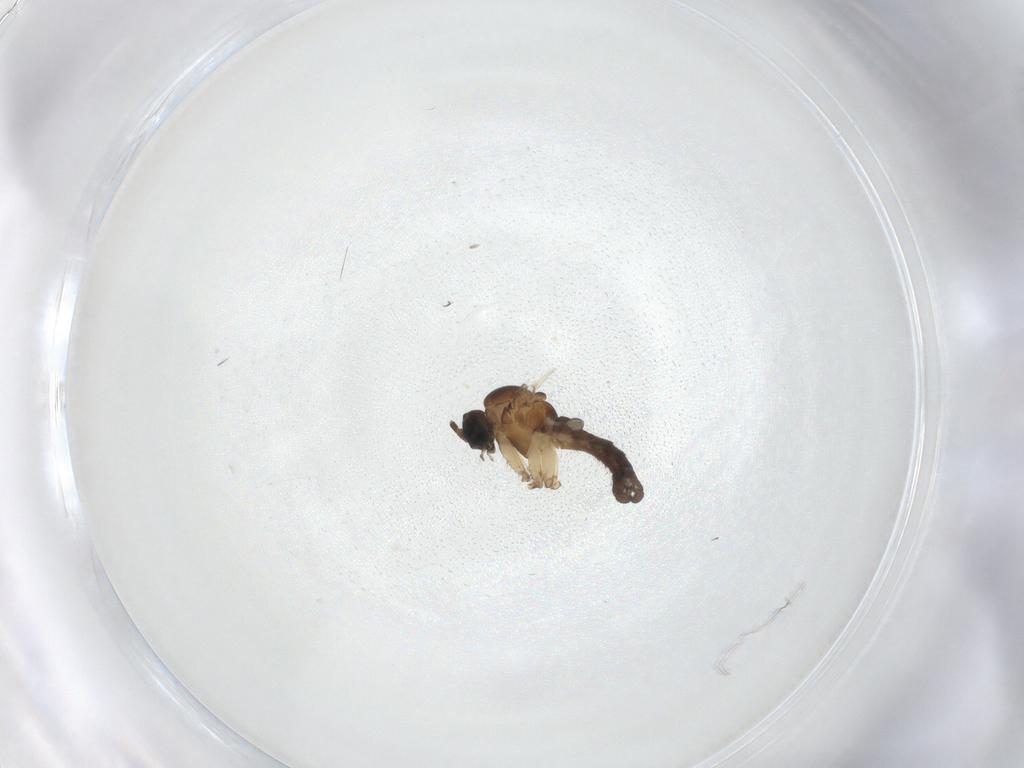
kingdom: Animalia
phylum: Arthropoda
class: Insecta
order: Diptera
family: Sciaridae
